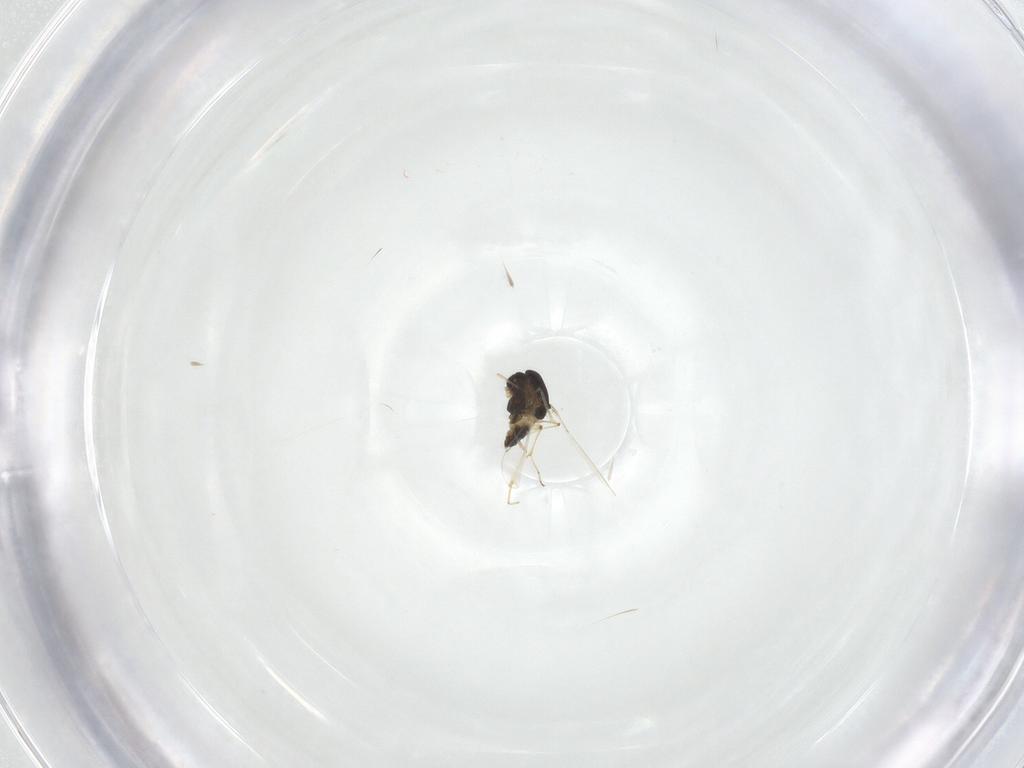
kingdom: Animalia
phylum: Arthropoda
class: Insecta
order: Diptera
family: Chironomidae
